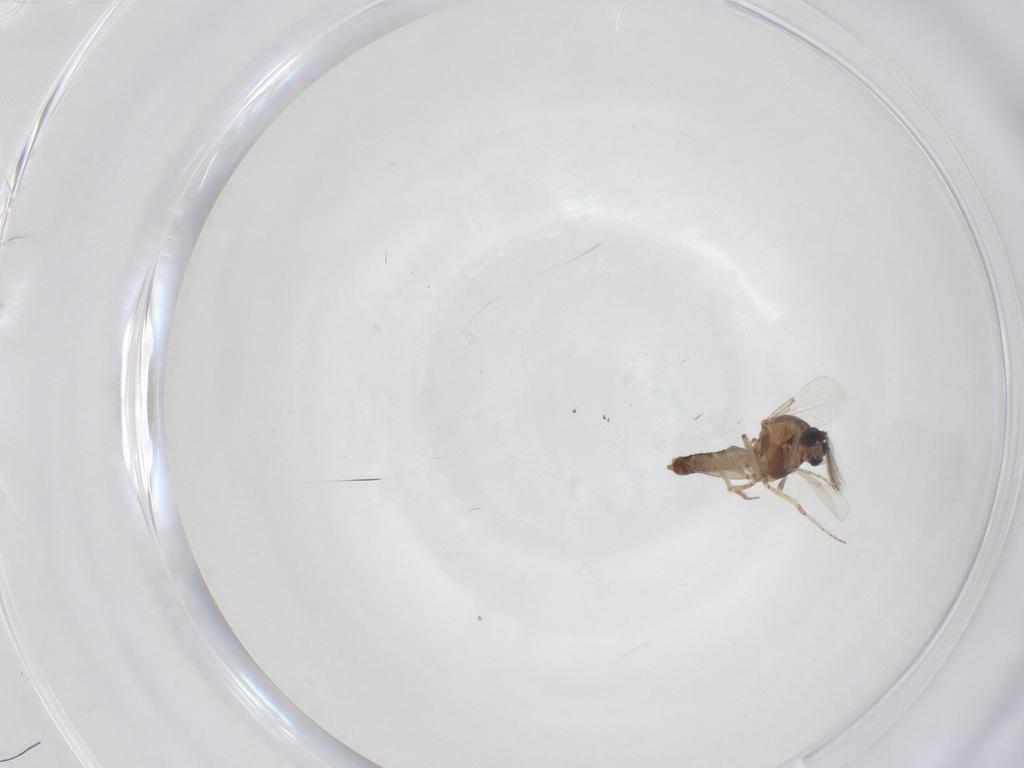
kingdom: Animalia
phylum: Arthropoda
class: Insecta
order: Diptera
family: Ceratopogonidae
